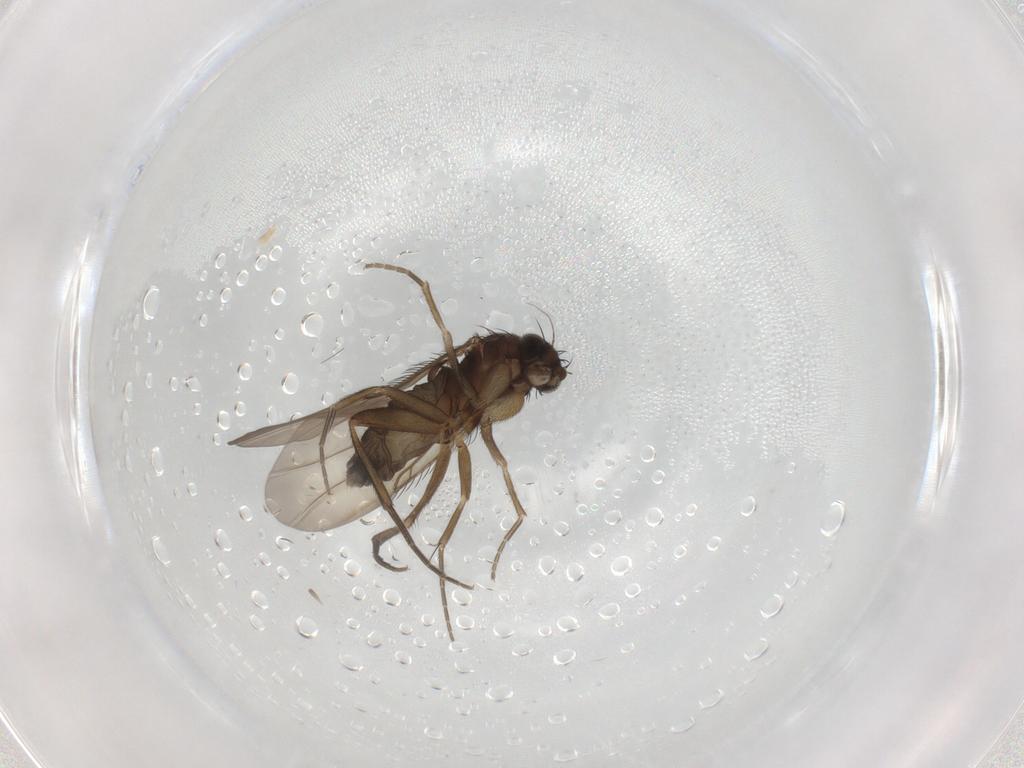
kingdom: Animalia
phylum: Arthropoda
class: Insecta
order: Diptera
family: Phoridae
